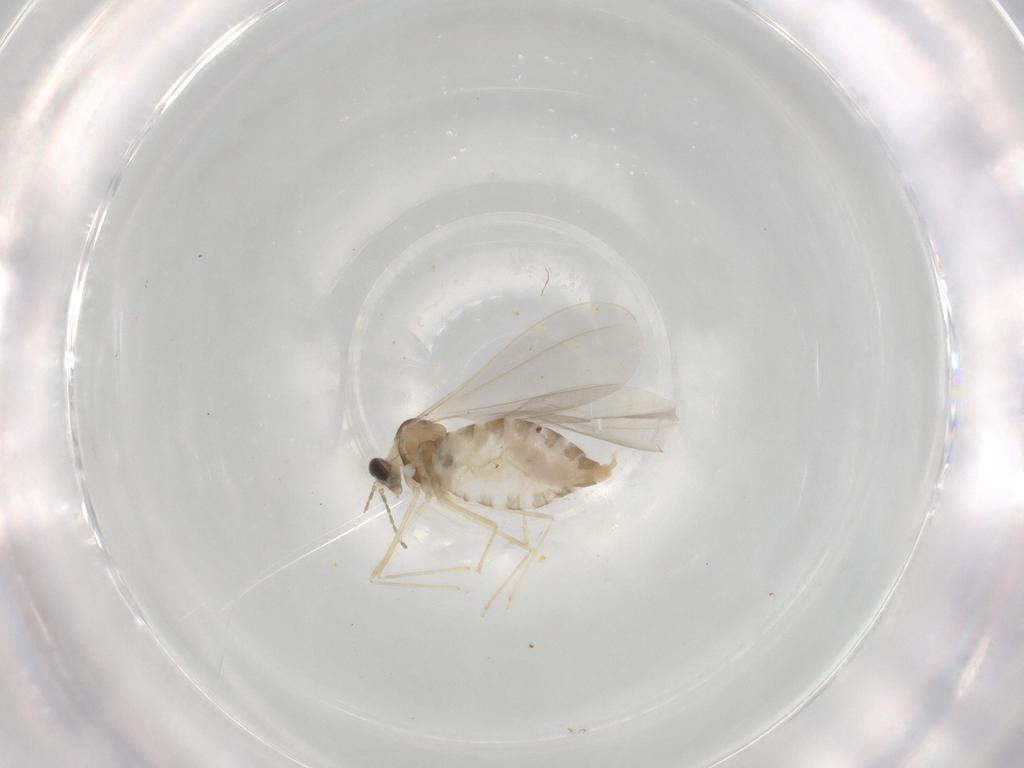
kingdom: Animalia
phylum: Arthropoda
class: Insecta
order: Diptera
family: Cecidomyiidae
